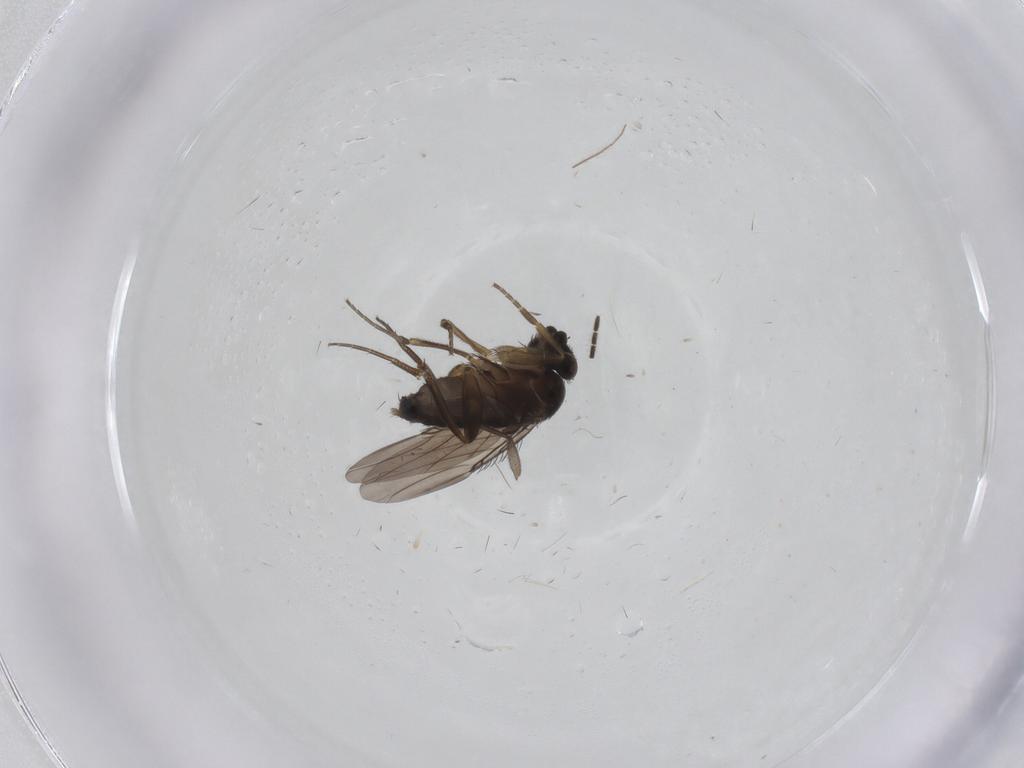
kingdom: Animalia
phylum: Arthropoda
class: Insecta
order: Diptera
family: Phoridae
